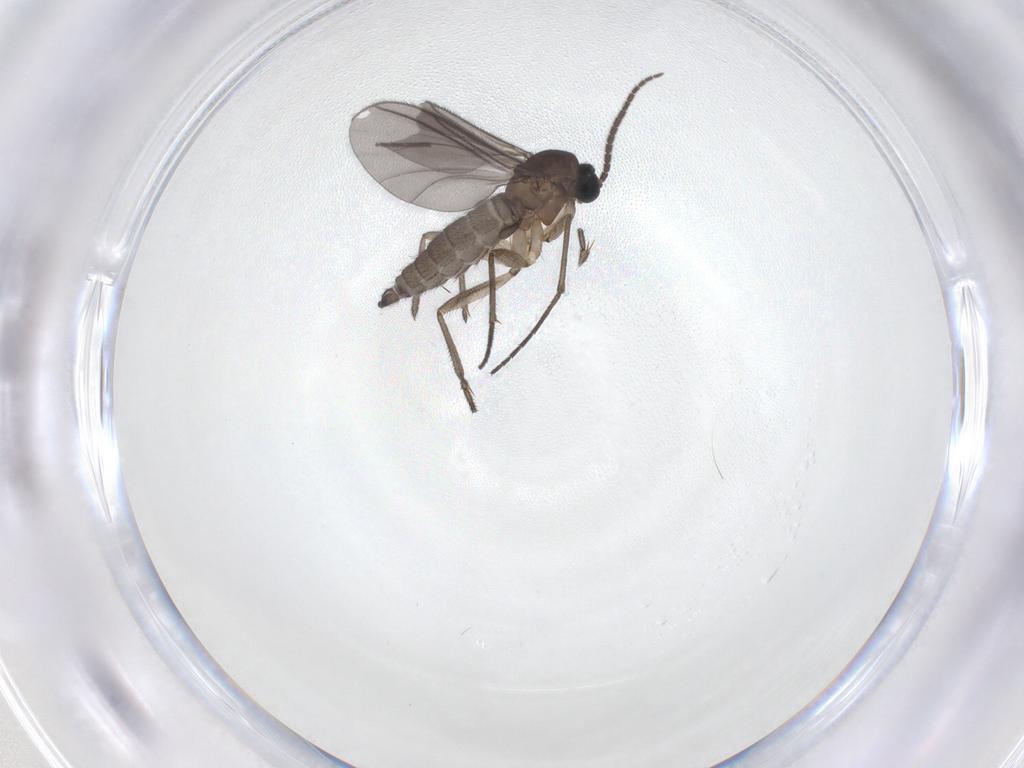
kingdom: Animalia
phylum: Arthropoda
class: Insecta
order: Diptera
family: Sciaridae
